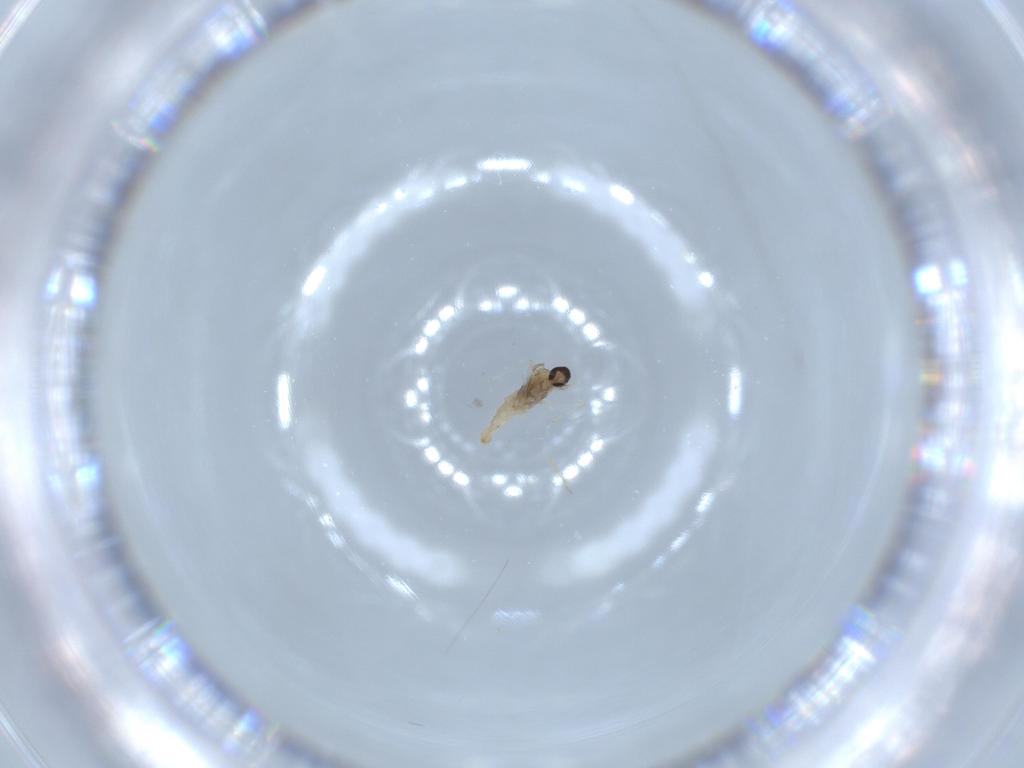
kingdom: Animalia
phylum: Arthropoda
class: Insecta
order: Diptera
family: Cecidomyiidae
